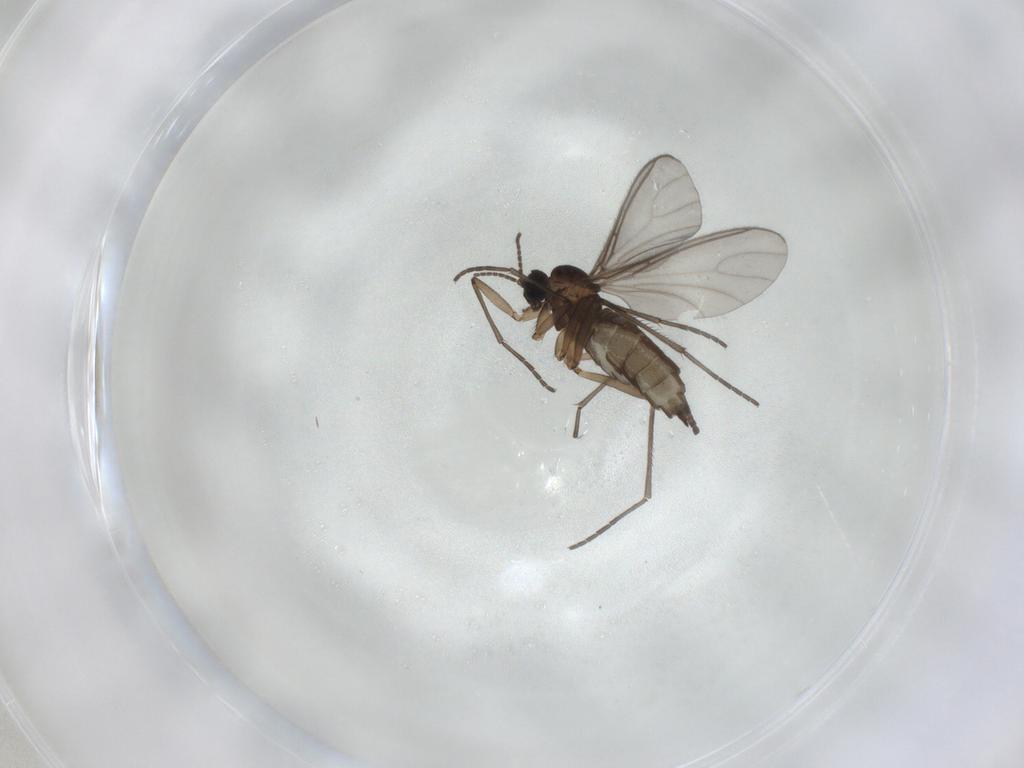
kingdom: Animalia
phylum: Arthropoda
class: Insecta
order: Diptera
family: Sciaridae
